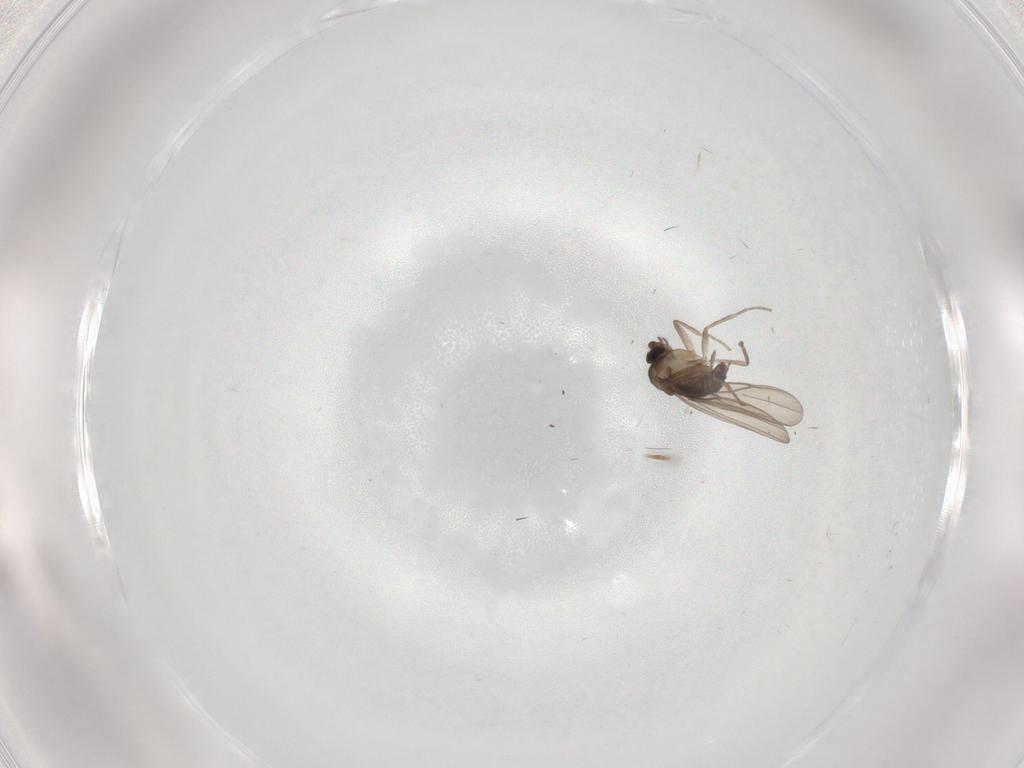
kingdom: Animalia
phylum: Arthropoda
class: Insecta
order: Diptera
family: Phoridae
